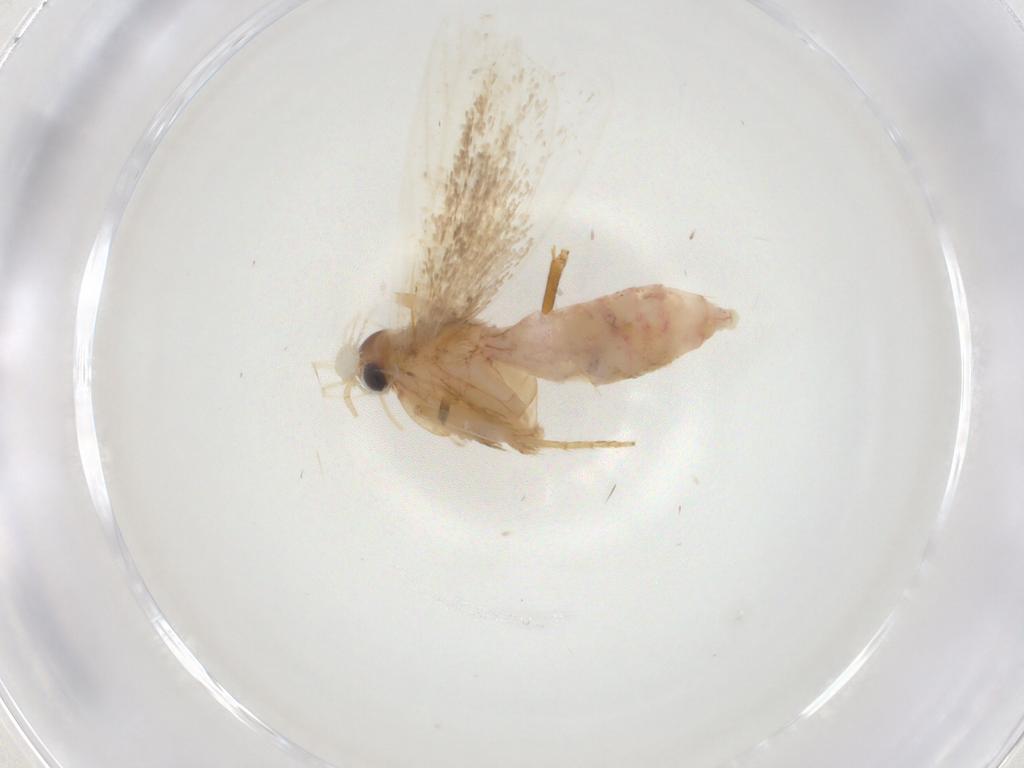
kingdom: Animalia
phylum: Arthropoda
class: Insecta
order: Lepidoptera
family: Gelechiidae
